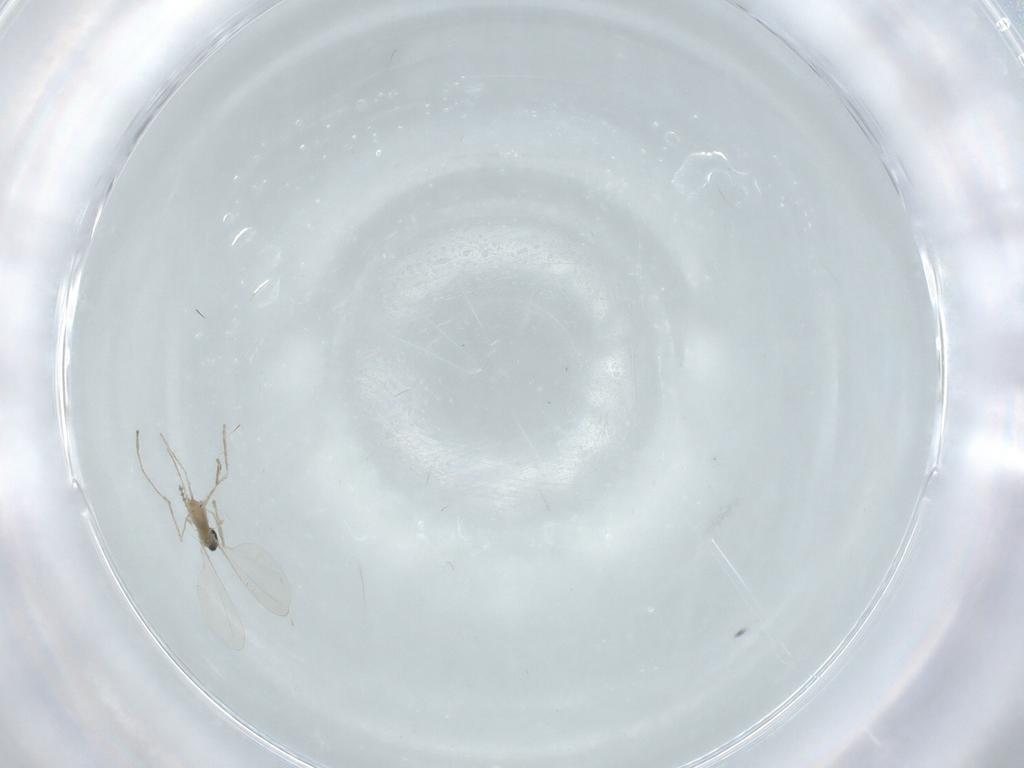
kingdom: Animalia
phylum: Arthropoda
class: Insecta
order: Diptera
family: Cecidomyiidae
